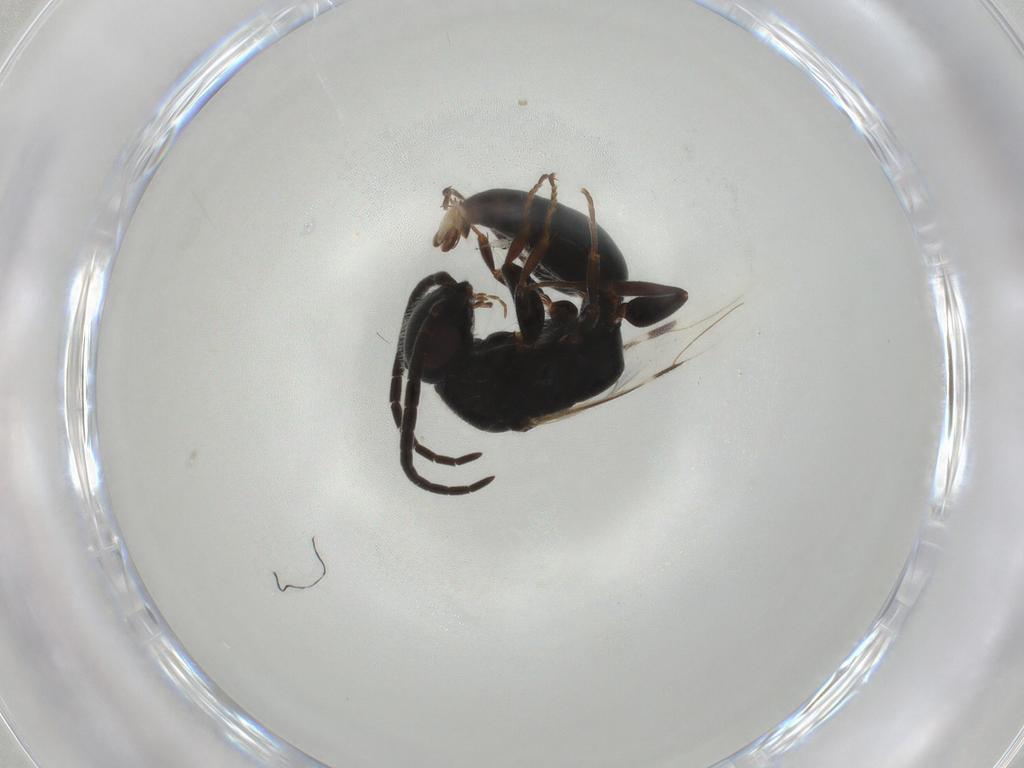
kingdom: Animalia
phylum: Arthropoda
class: Insecta
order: Hymenoptera
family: Bethylidae
